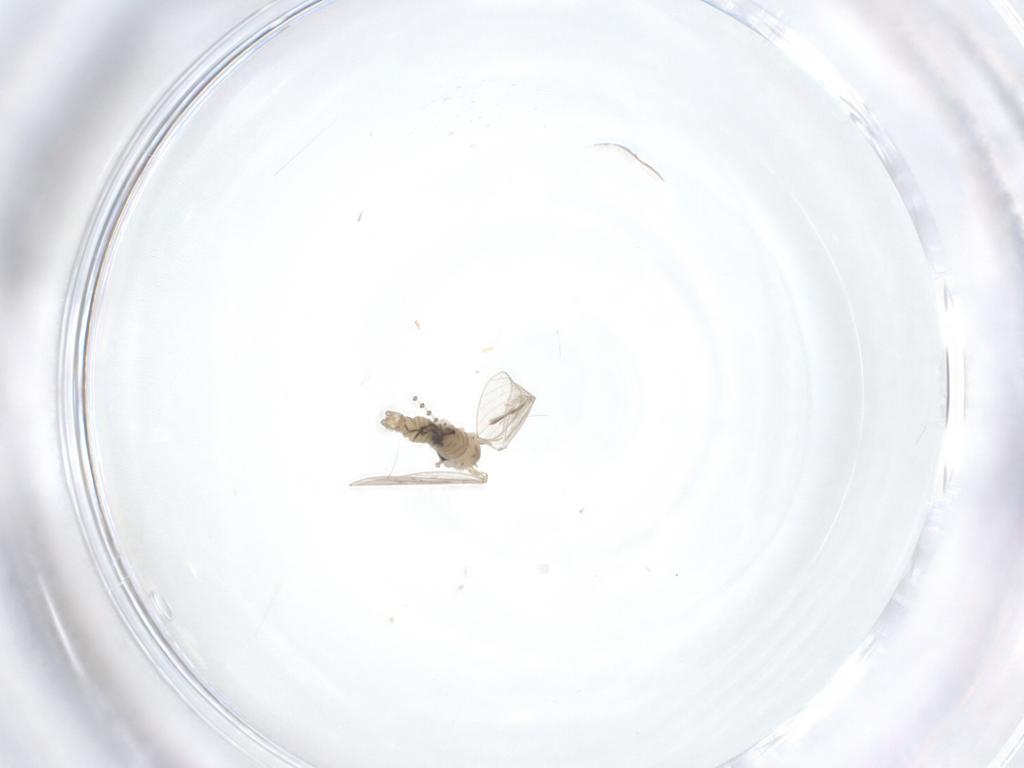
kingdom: Animalia
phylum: Arthropoda
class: Insecta
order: Diptera
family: Psychodidae
